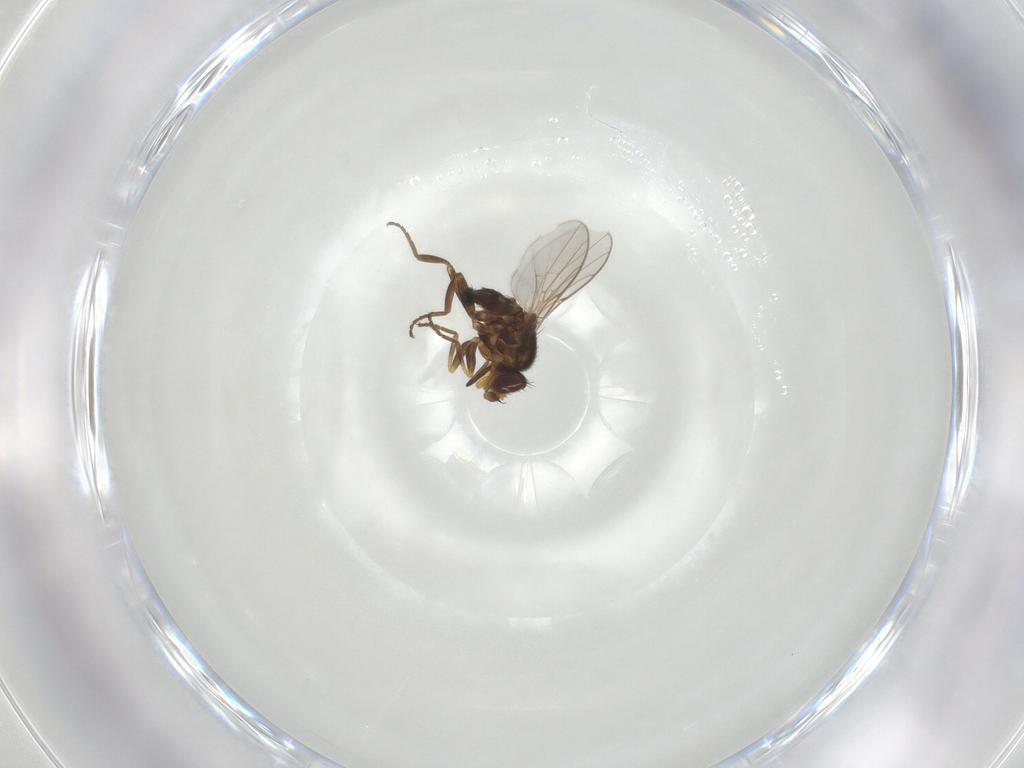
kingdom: Animalia
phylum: Arthropoda
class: Insecta
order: Diptera
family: Chloropidae
